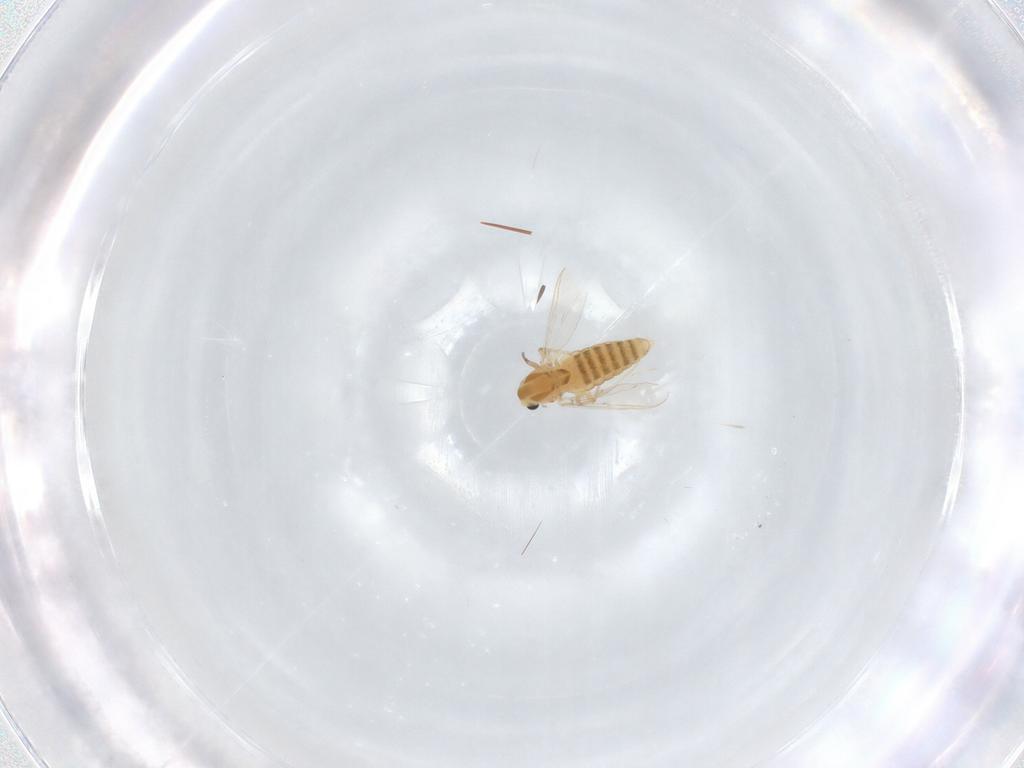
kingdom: Animalia
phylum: Arthropoda
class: Insecta
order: Diptera
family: Chironomidae
